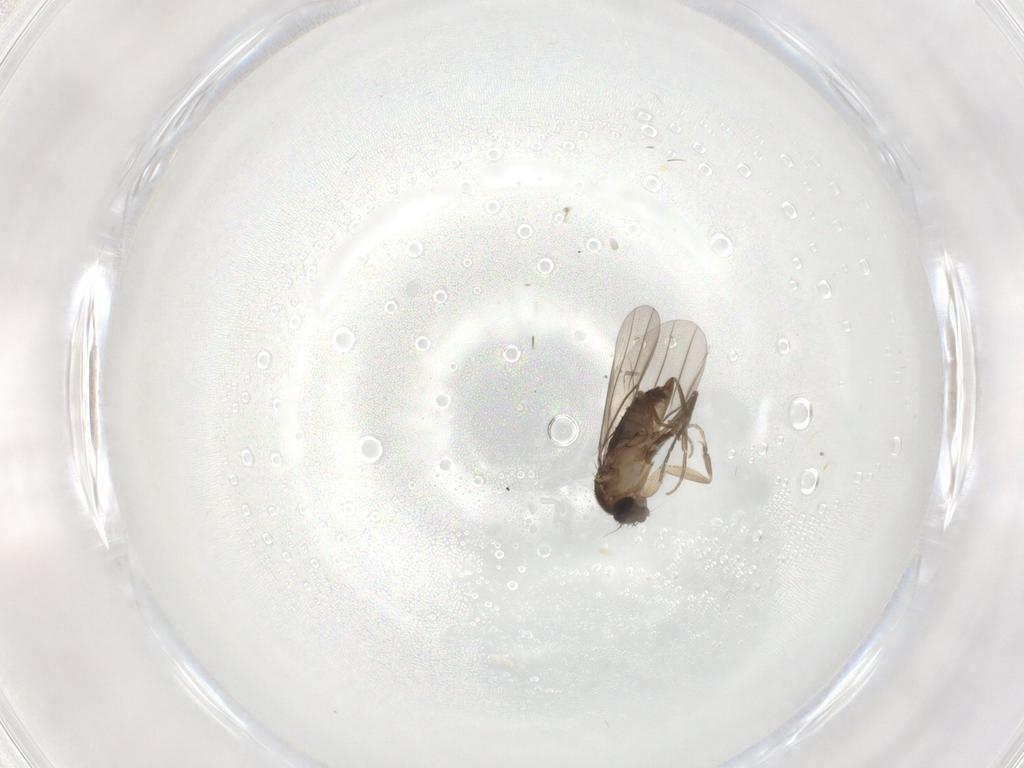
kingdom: Animalia
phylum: Arthropoda
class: Insecta
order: Diptera
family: Phoridae
